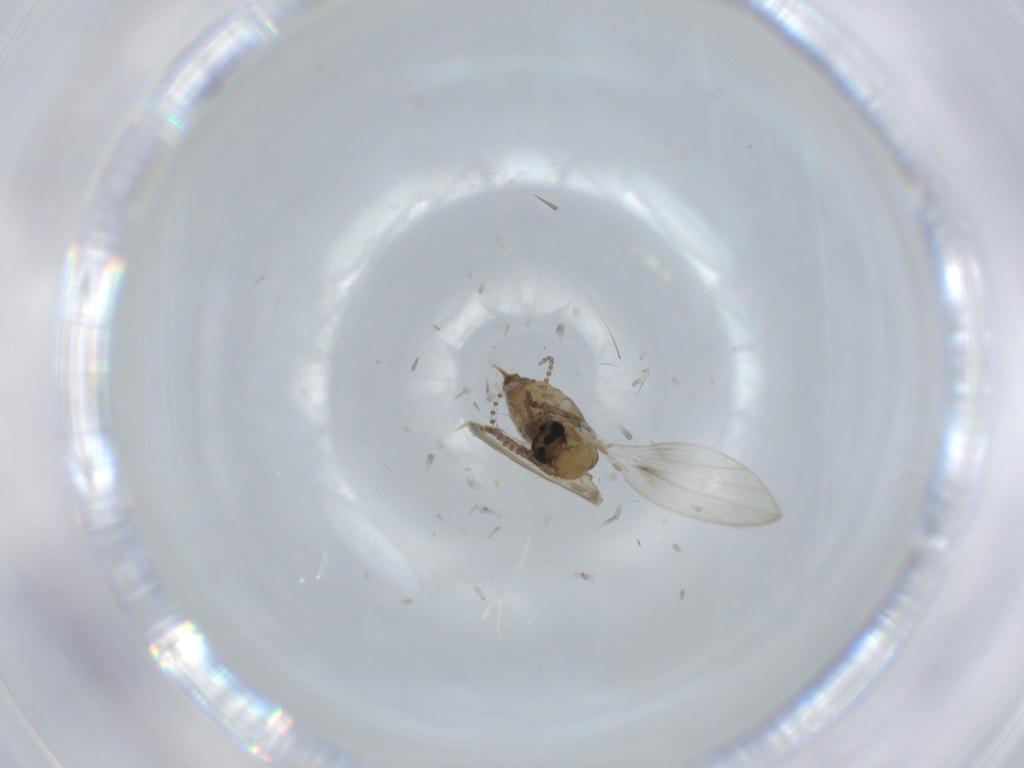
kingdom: Animalia
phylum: Arthropoda
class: Insecta
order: Diptera
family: Psychodidae
